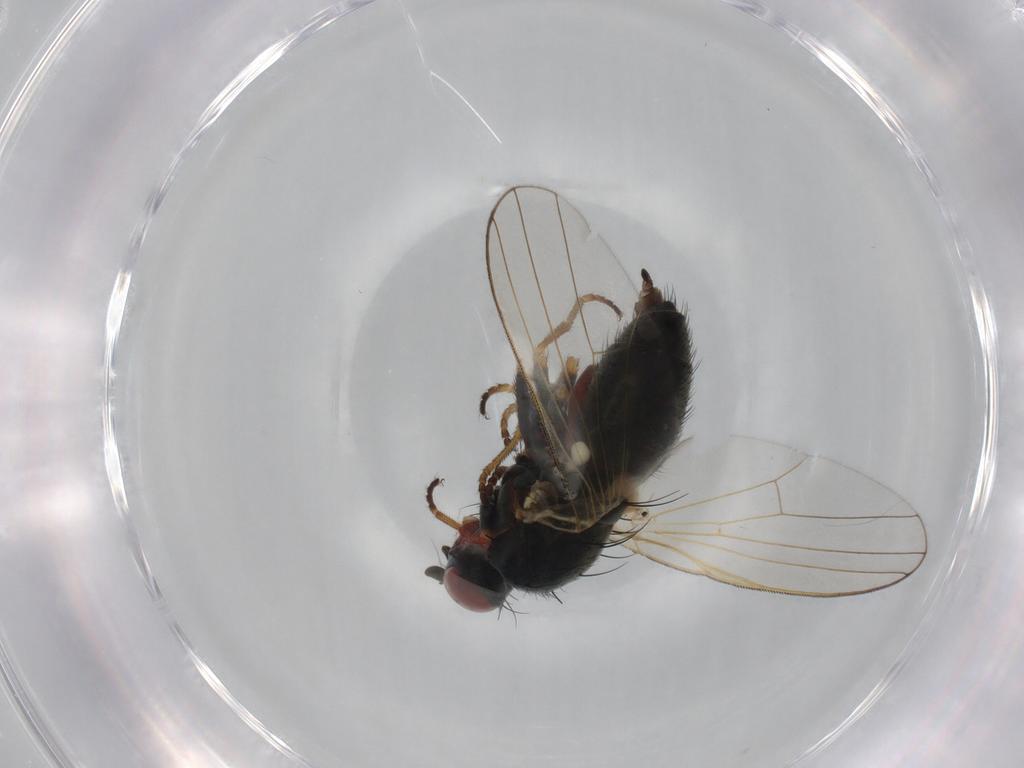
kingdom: Animalia
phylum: Arthropoda
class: Insecta
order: Diptera
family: Chamaemyiidae
